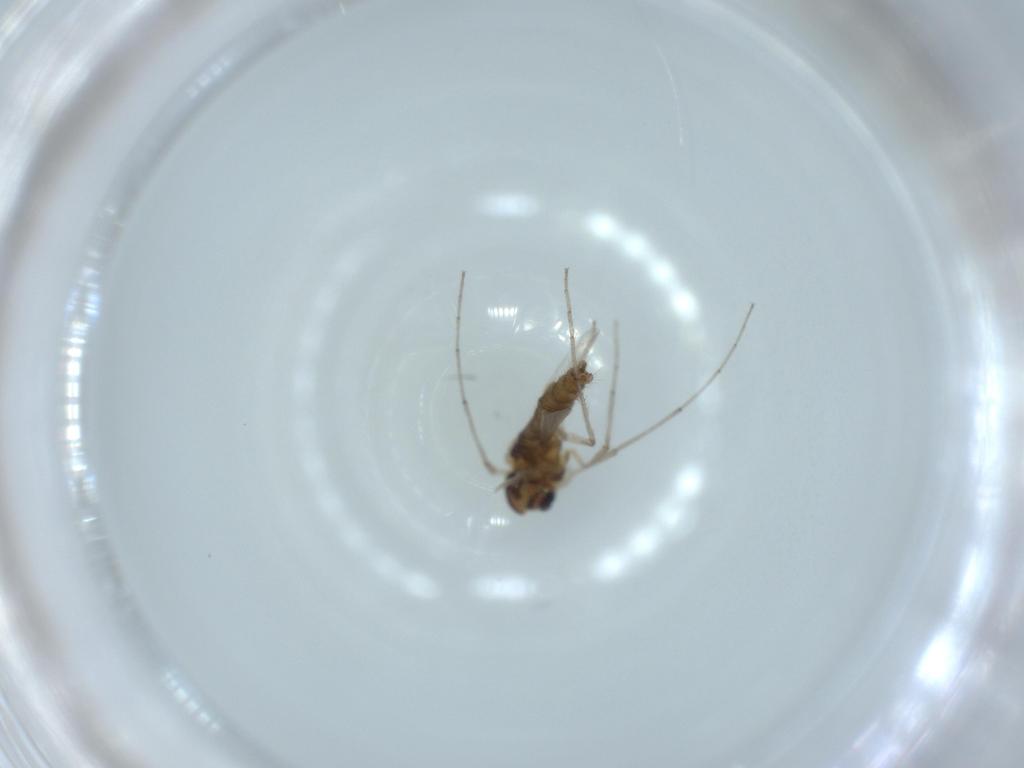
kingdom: Animalia
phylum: Arthropoda
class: Insecta
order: Diptera
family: Chironomidae
